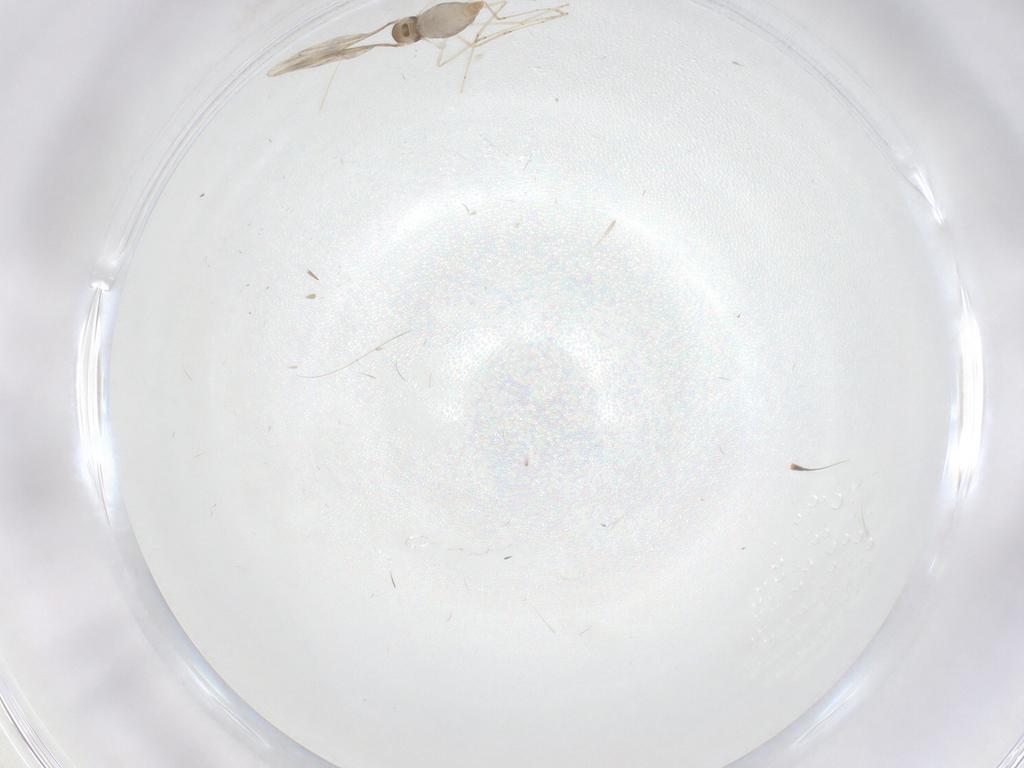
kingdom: Animalia
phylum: Arthropoda
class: Insecta
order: Diptera
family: Cecidomyiidae
